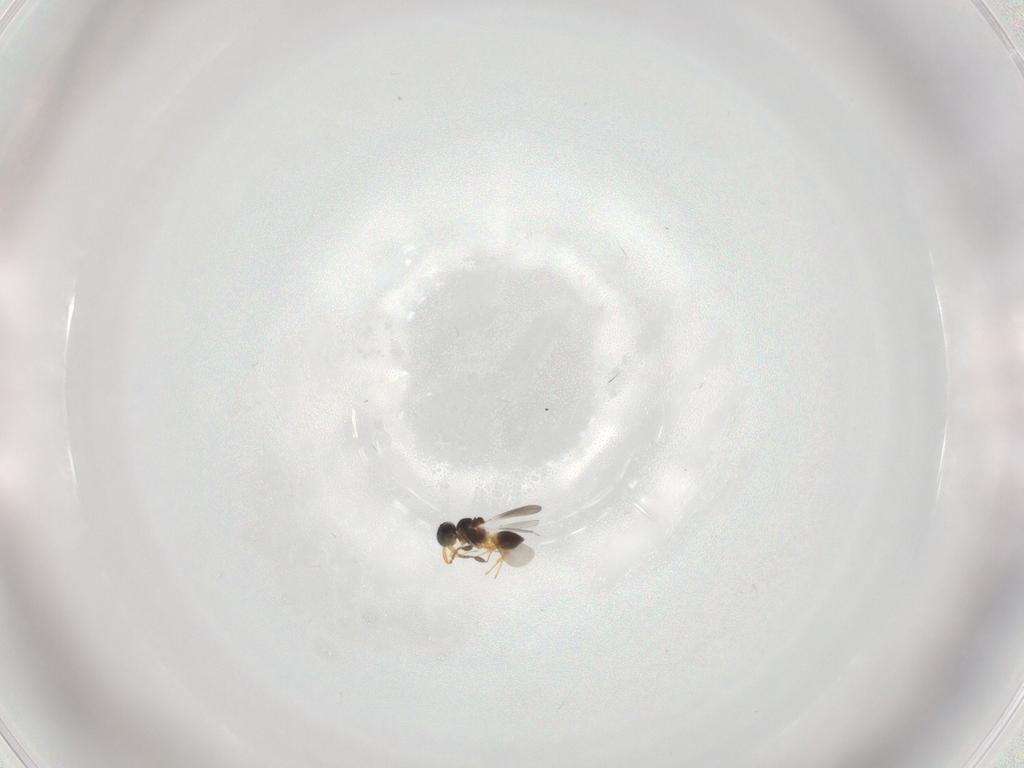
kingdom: Animalia
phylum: Arthropoda
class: Insecta
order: Hymenoptera
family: Platygastridae
